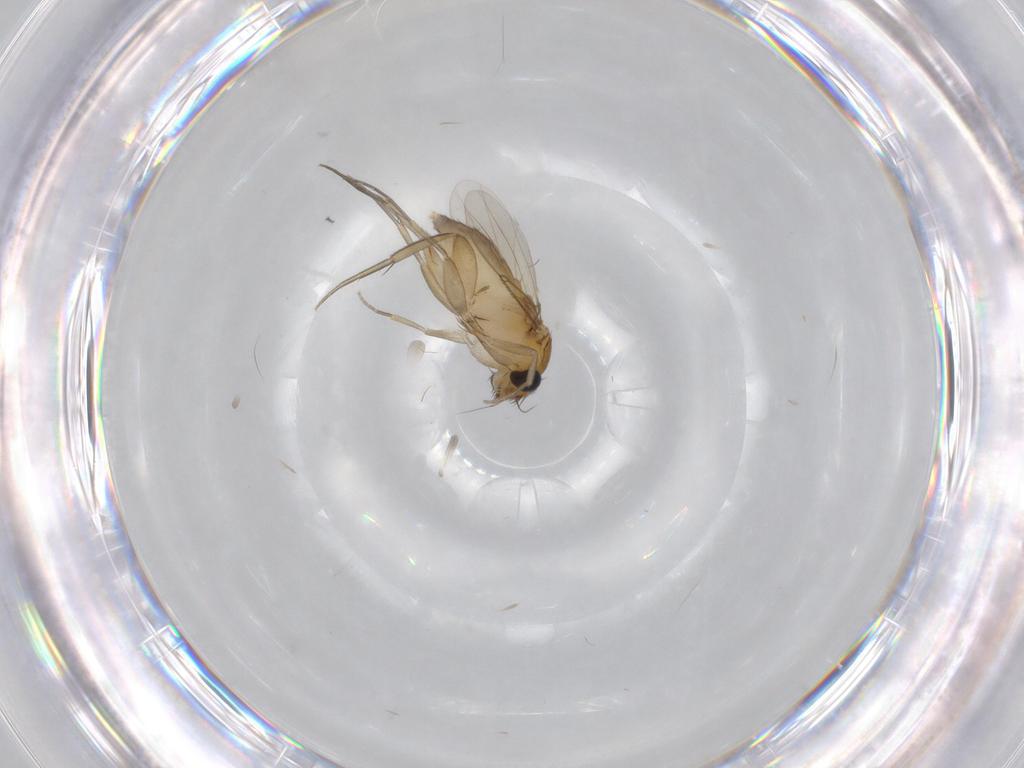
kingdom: Animalia
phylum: Arthropoda
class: Insecta
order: Diptera
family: Phoridae
